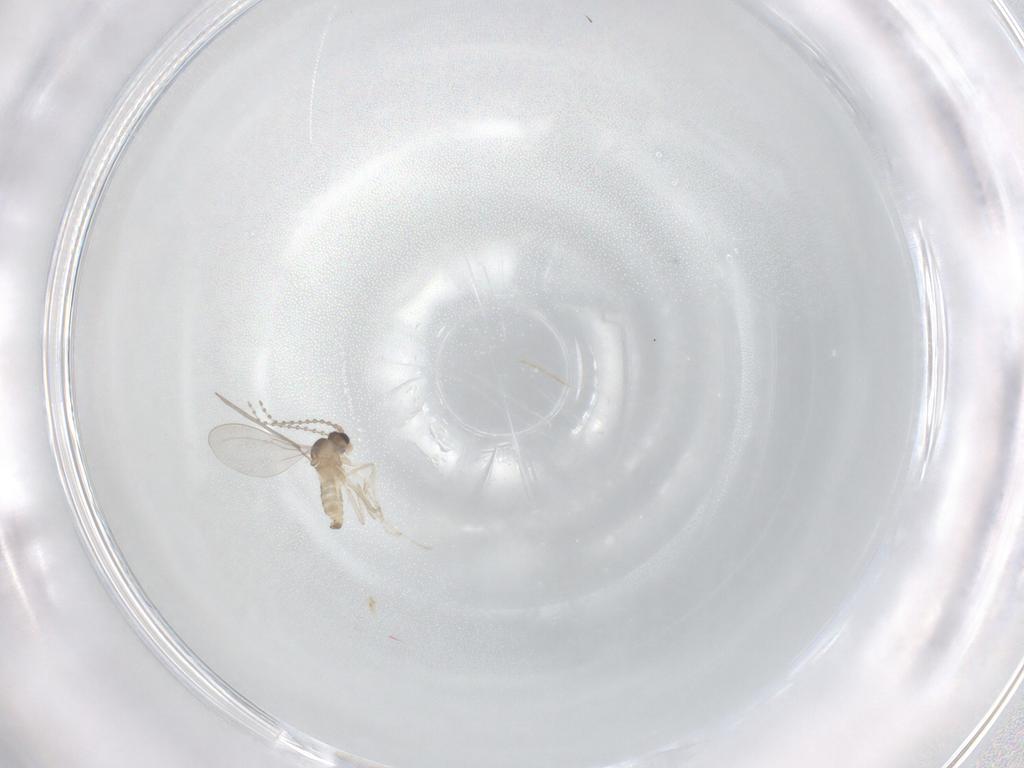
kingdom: Animalia
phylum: Arthropoda
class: Insecta
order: Diptera
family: Cecidomyiidae
